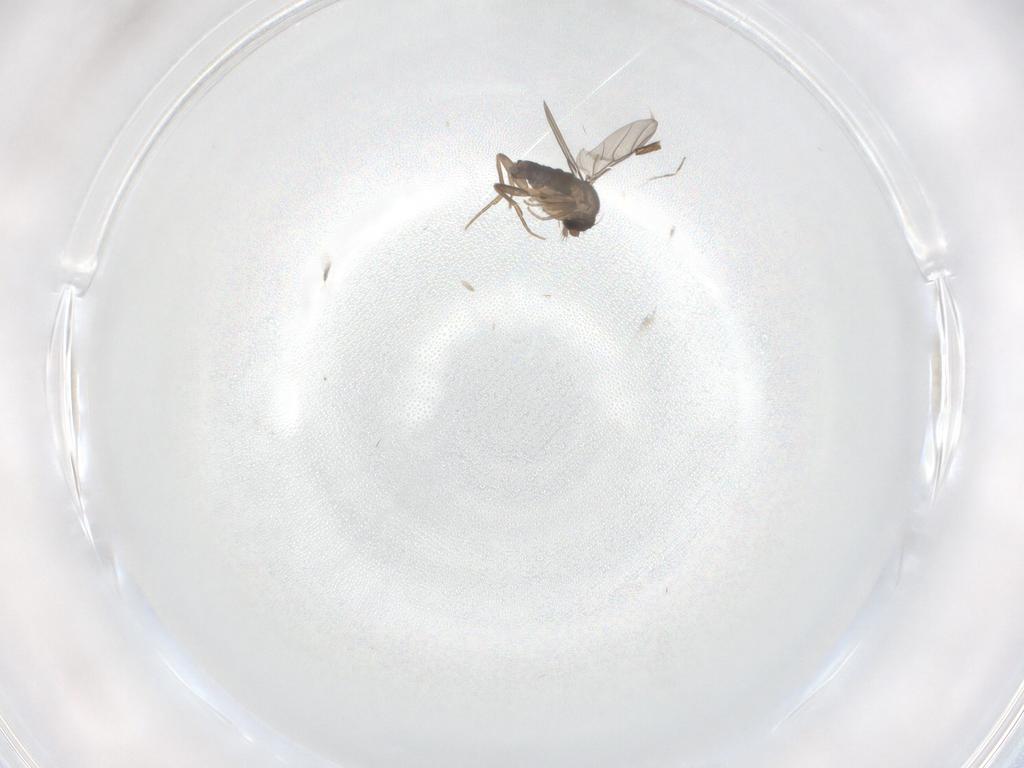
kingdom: Animalia
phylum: Arthropoda
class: Insecta
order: Diptera
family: Phoridae
